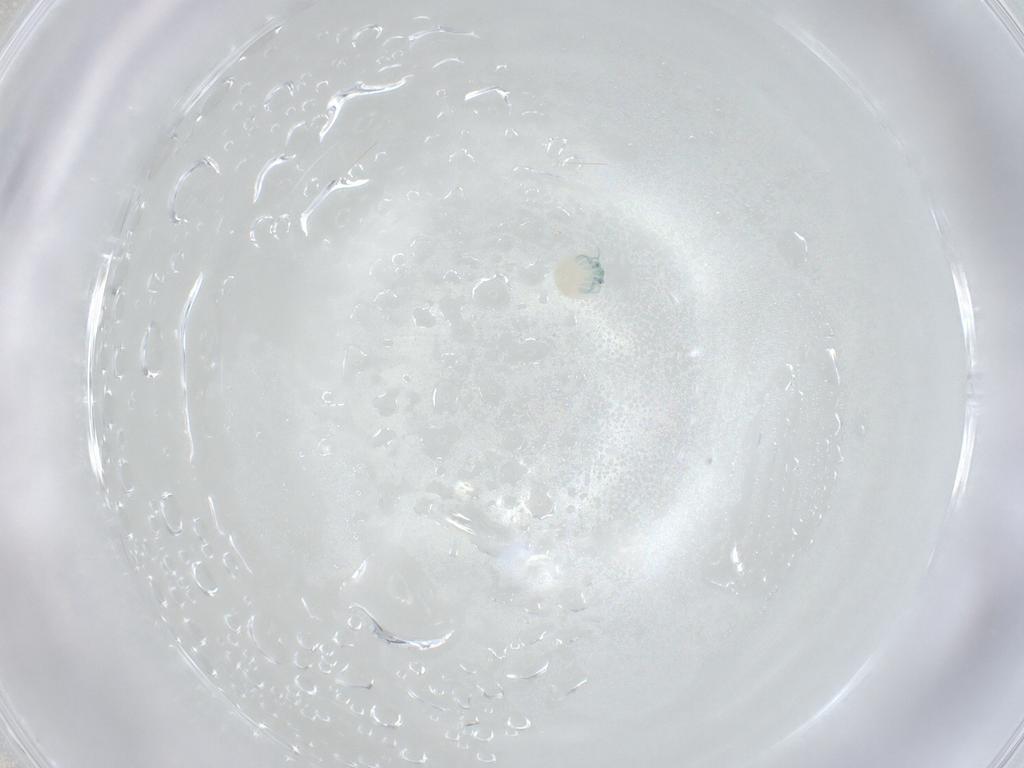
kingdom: Animalia
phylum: Arthropoda
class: Arachnida
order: Trombidiformes
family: Arrenuridae
